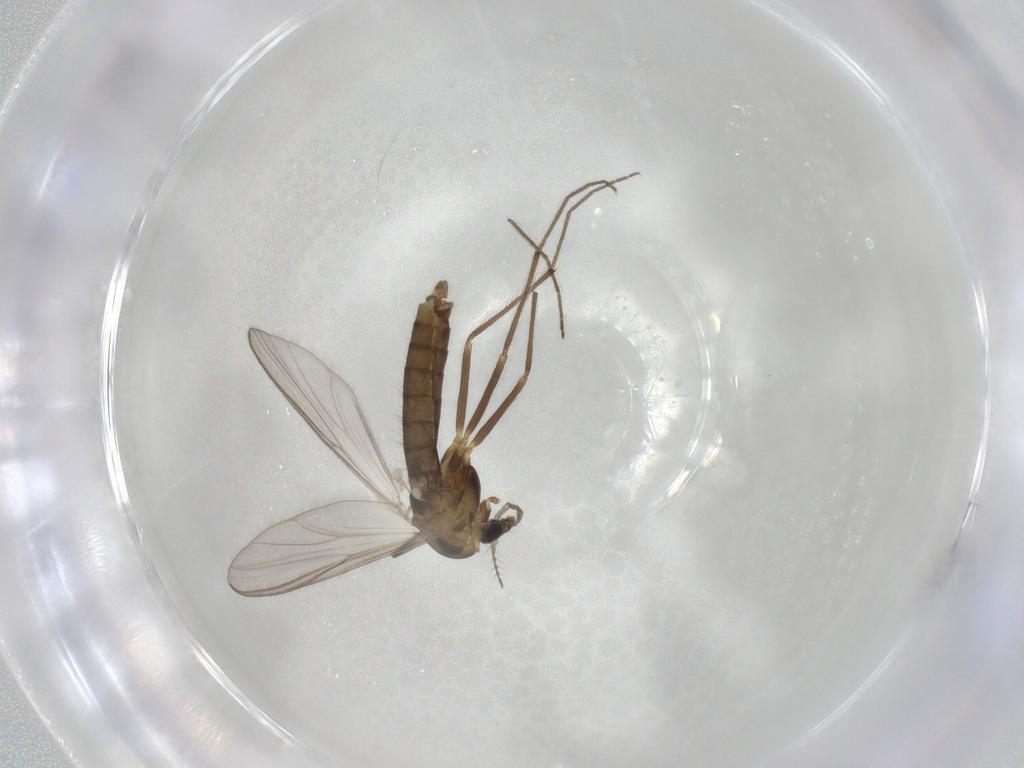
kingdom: Animalia
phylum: Arthropoda
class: Insecta
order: Diptera
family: Chironomidae
